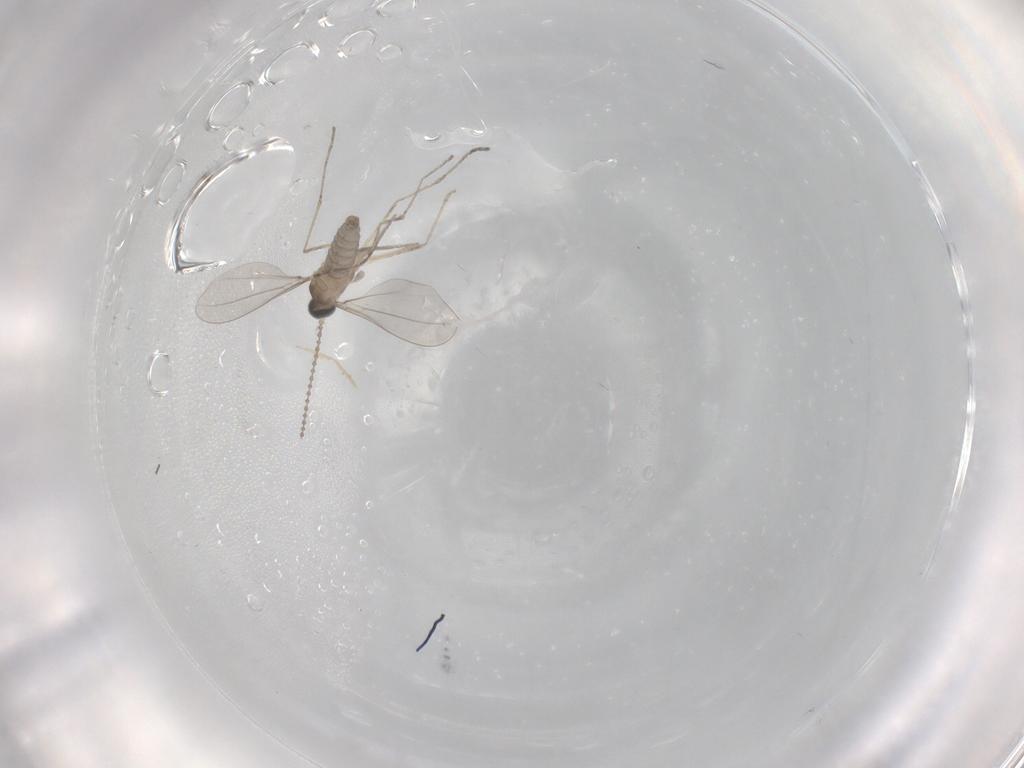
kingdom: Animalia
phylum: Arthropoda
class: Insecta
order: Diptera
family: Cecidomyiidae
